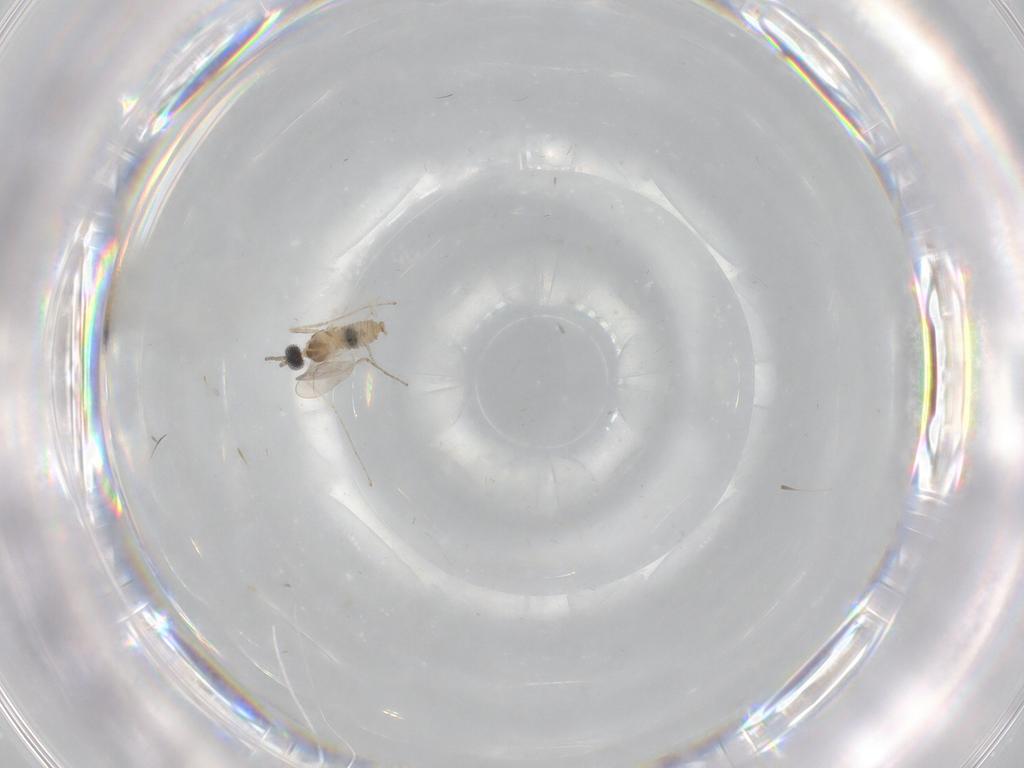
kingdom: Animalia
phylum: Arthropoda
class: Insecta
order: Diptera
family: Cecidomyiidae
